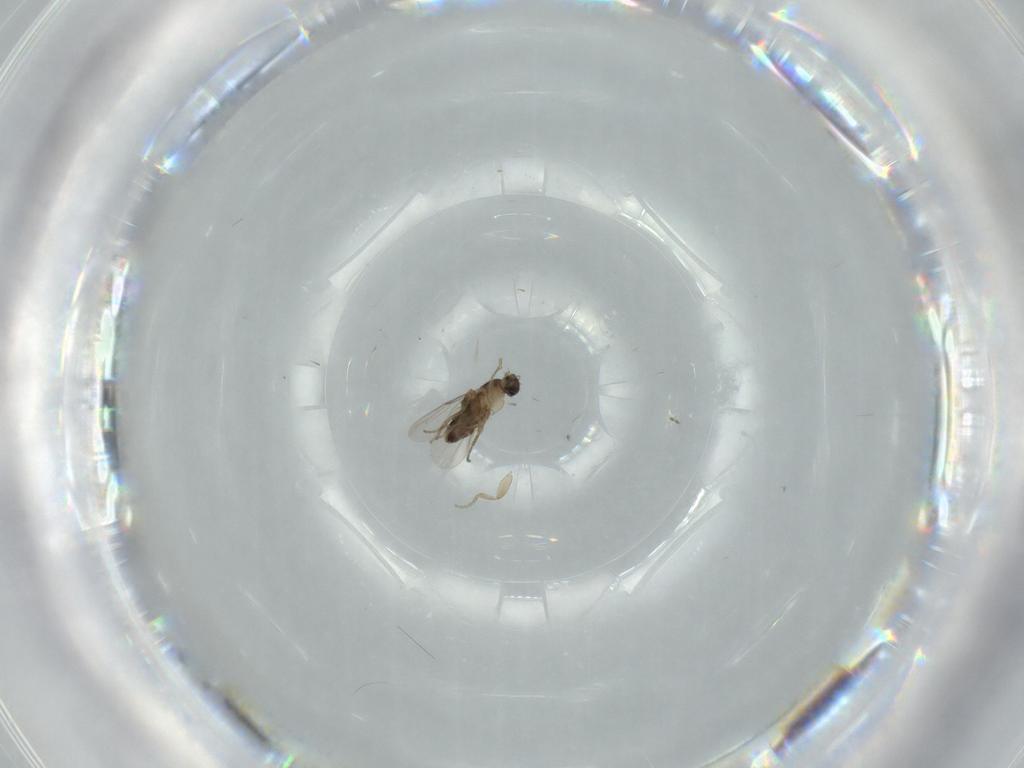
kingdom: Animalia
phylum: Arthropoda
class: Insecta
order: Diptera
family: Phoridae
